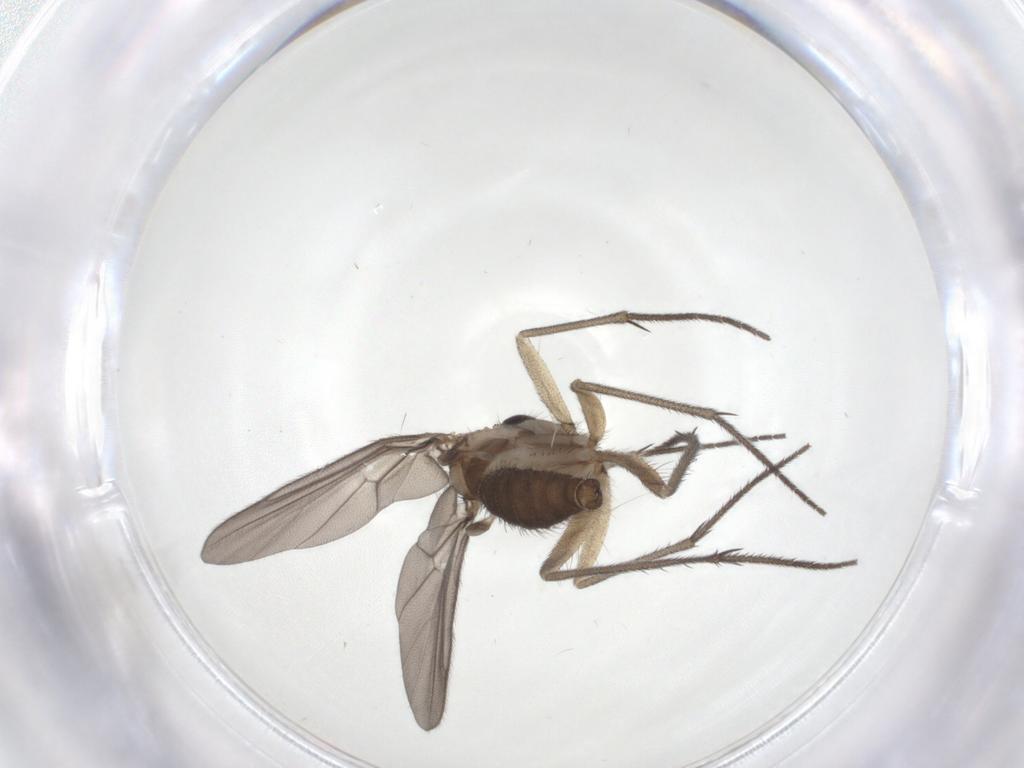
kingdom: Animalia
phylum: Arthropoda
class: Insecta
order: Diptera
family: Diadocidiidae
